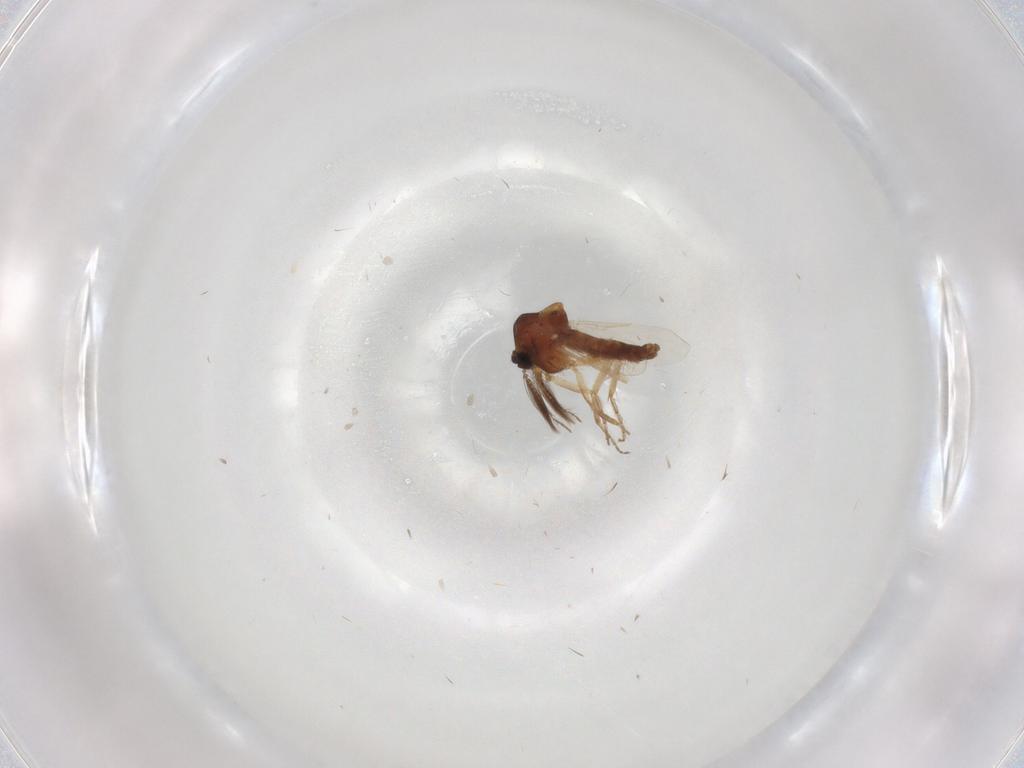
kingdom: Animalia
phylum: Arthropoda
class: Insecta
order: Diptera
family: Ceratopogonidae
